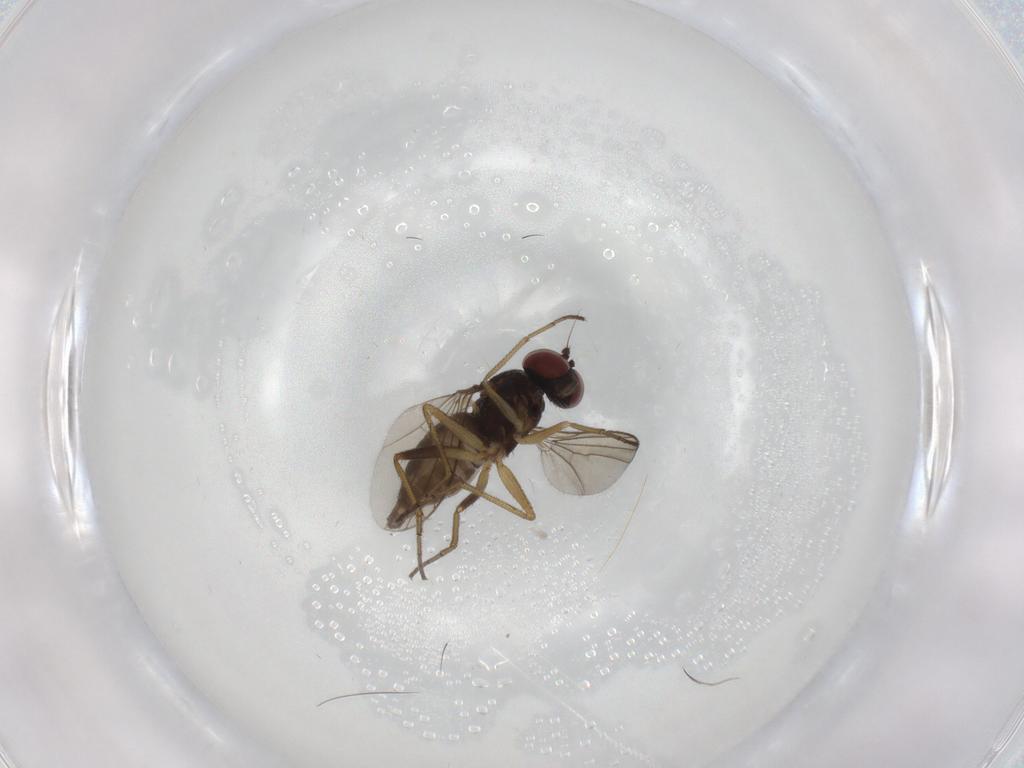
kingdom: Animalia
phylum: Arthropoda
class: Insecta
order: Diptera
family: Dolichopodidae
